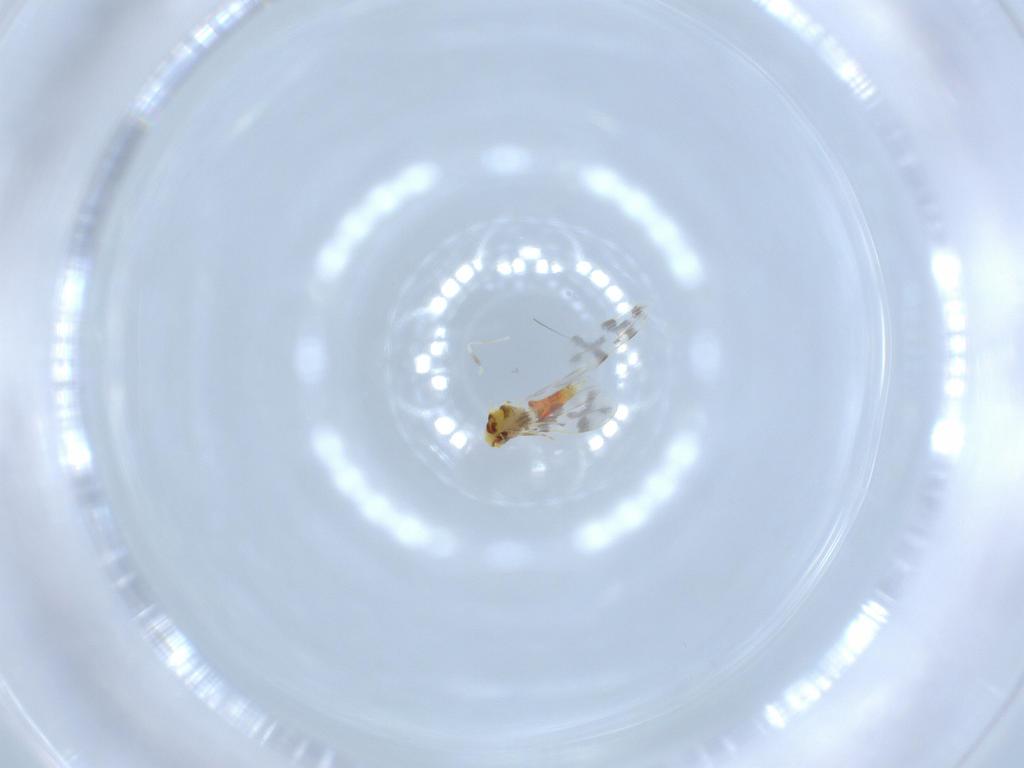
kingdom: Animalia
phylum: Arthropoda
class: Insecta
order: Hemiptera
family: Aleyrodidae
